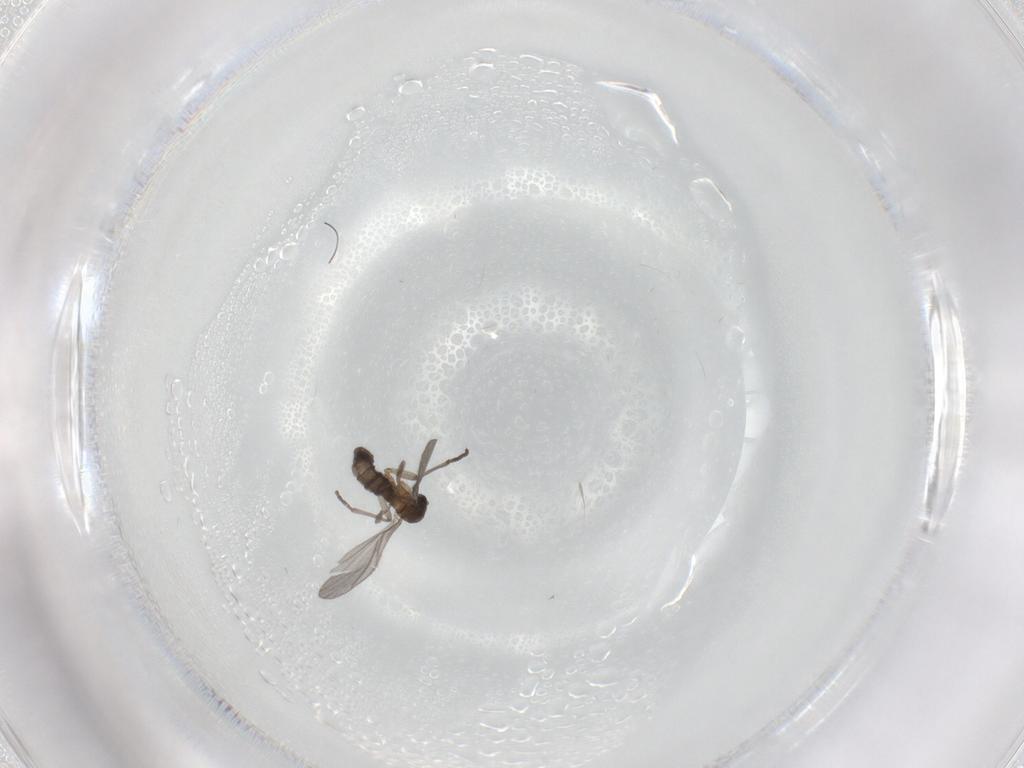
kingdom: Animalia
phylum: Arthropoda
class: Insecta
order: Diptera
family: Sciaridae
